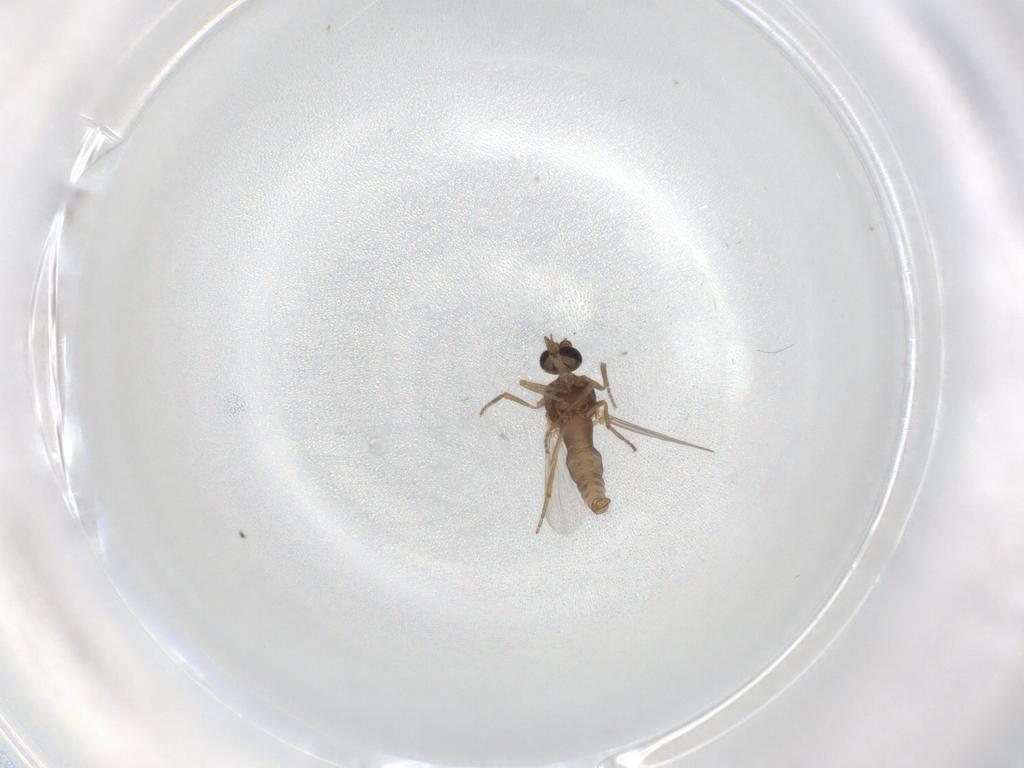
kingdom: Animalia
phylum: Arthropoda
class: Insecta
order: Diptera
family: Ceratopogonidae
